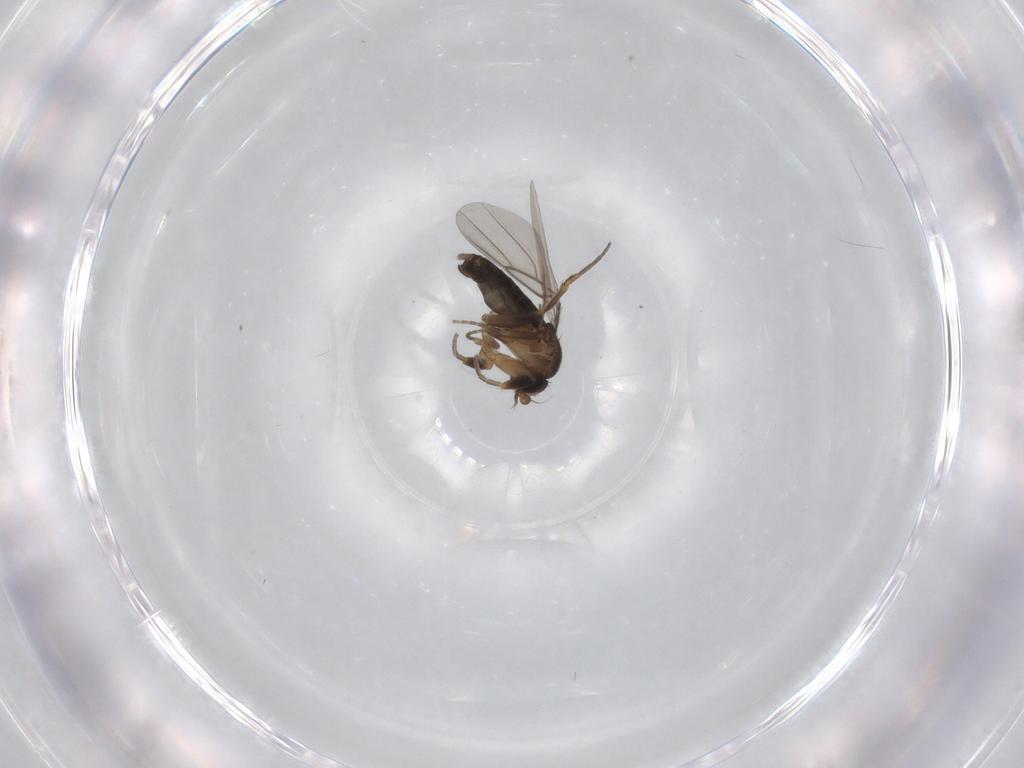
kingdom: Animalia
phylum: Arthropoda
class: Insecta
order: Diptera
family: Phoridae
